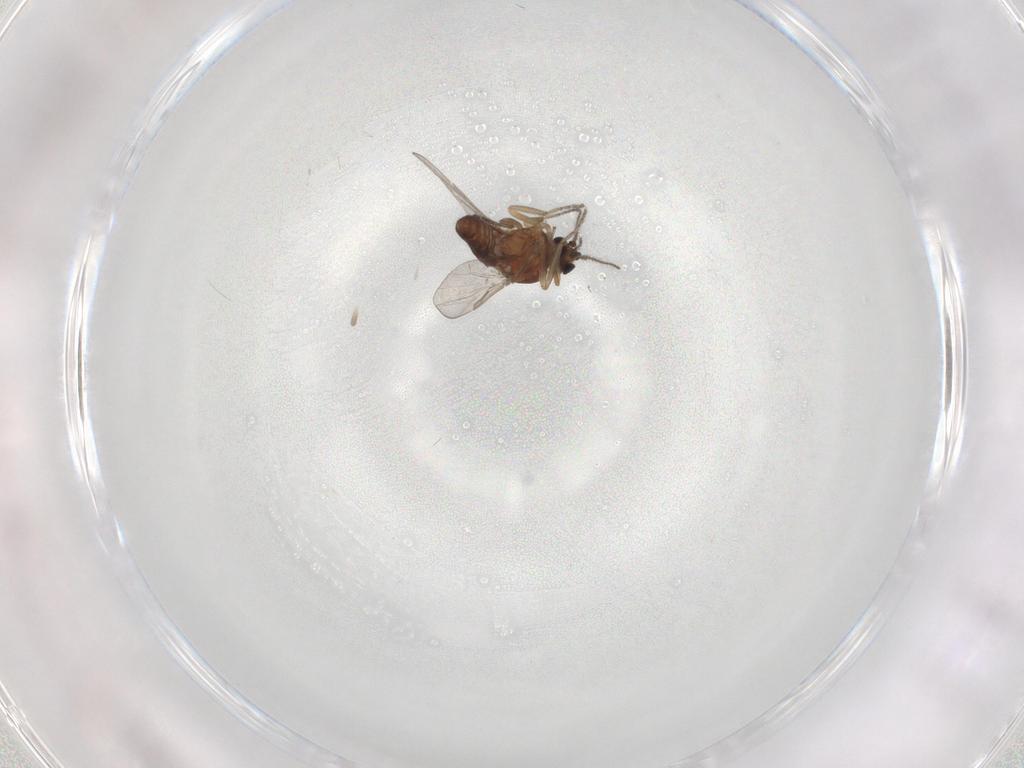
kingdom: Animalia
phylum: Arthropoda
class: Insecta
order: Diptera
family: Sciaridae
